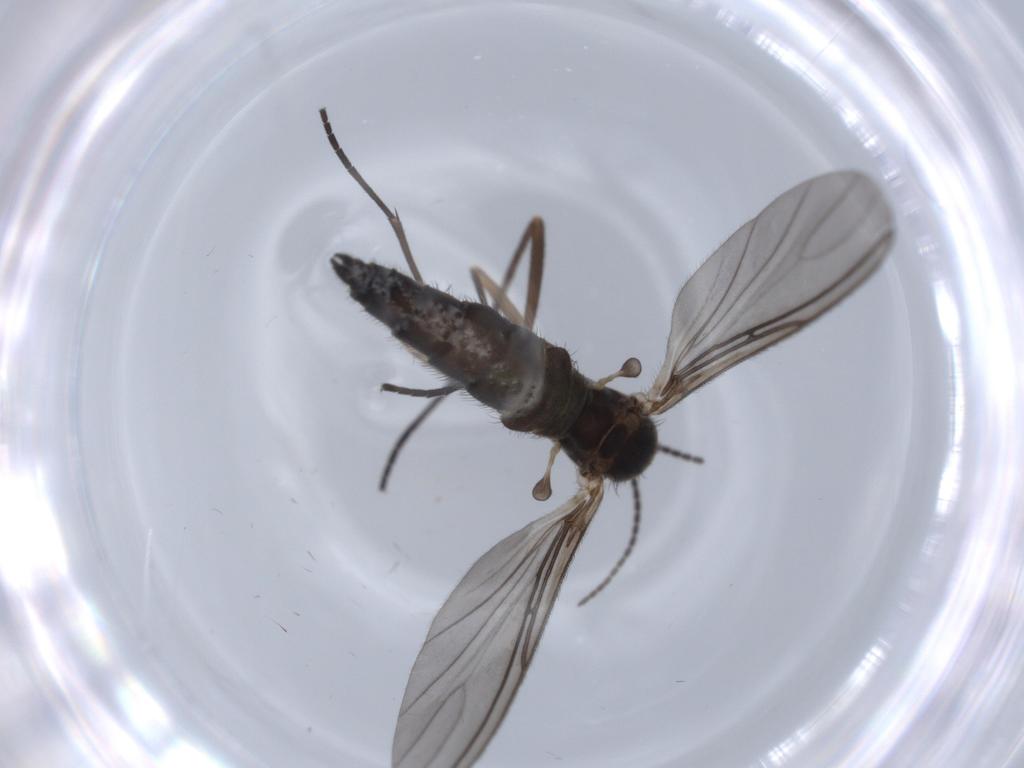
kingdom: Animalia
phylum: Arthropoda
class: Insecta
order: Diptera
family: Sciaridae
